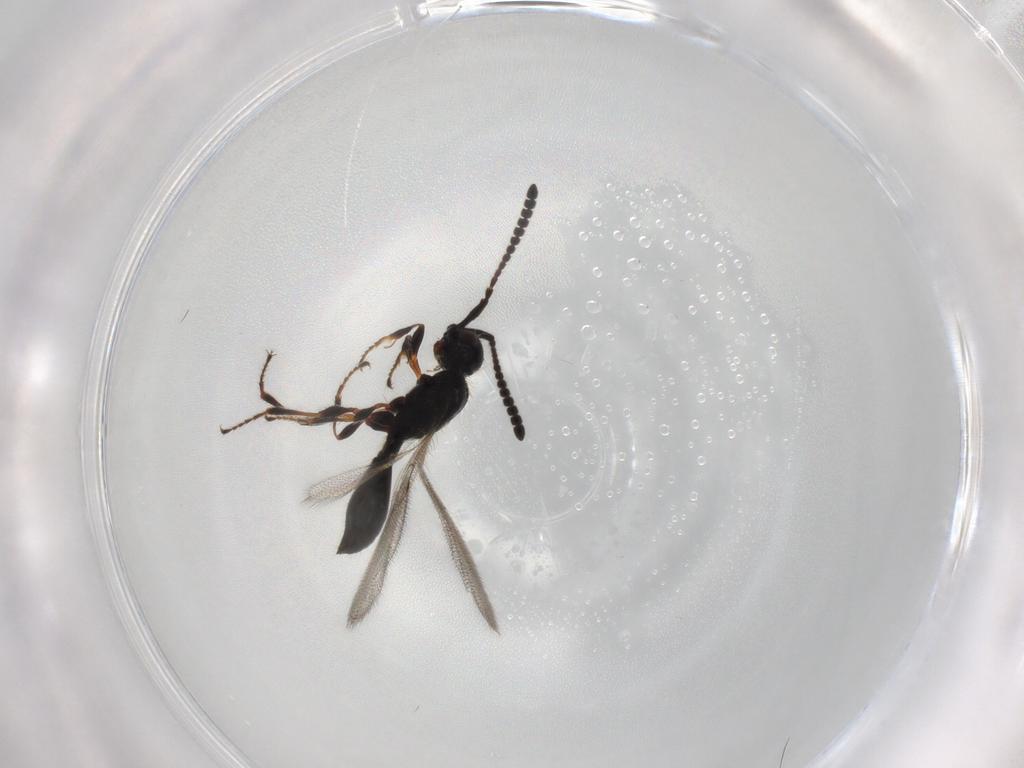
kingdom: Animalia
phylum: Arthropoda
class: Insecta
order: Hymenoptera
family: Diapriidae
